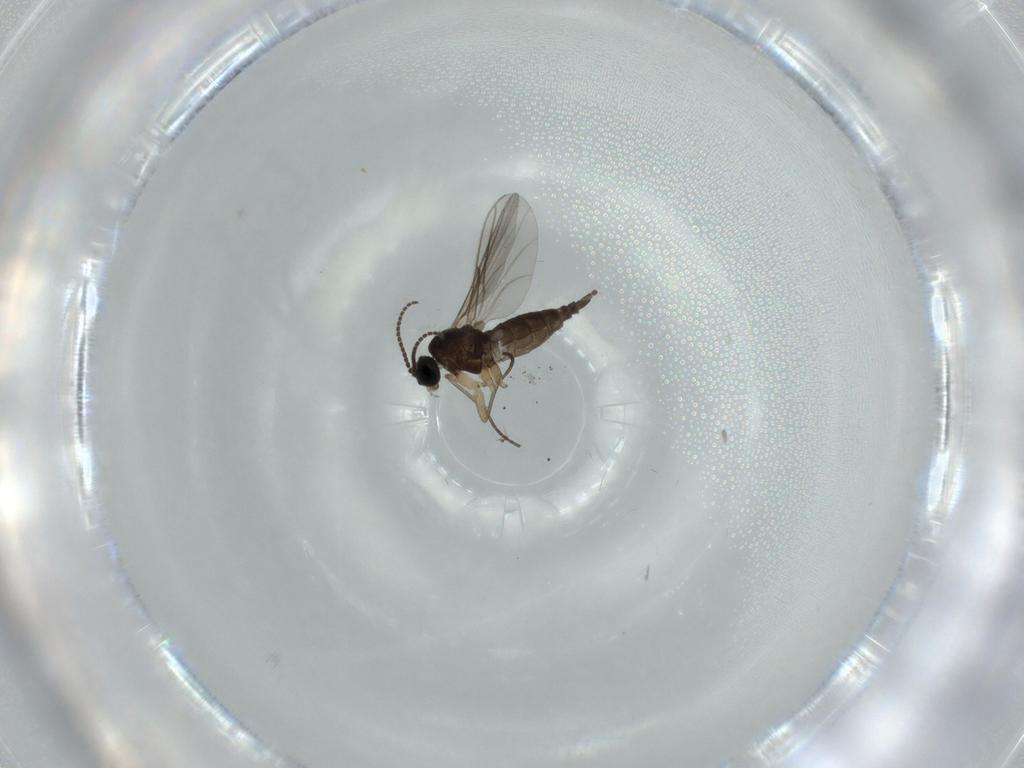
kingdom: Animalia
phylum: Arthropoda
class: Insecta
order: Diptera
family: Sciaridae
